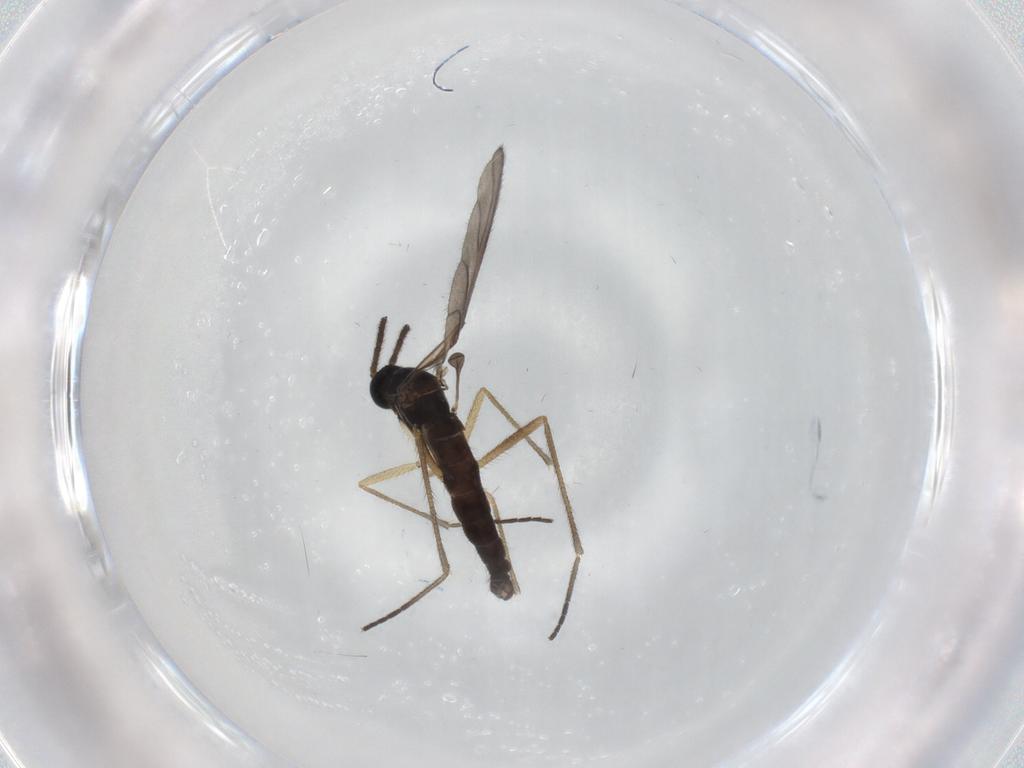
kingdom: Animalia
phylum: Arthropoda
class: Insecta
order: Diptera
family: Sciaridae
